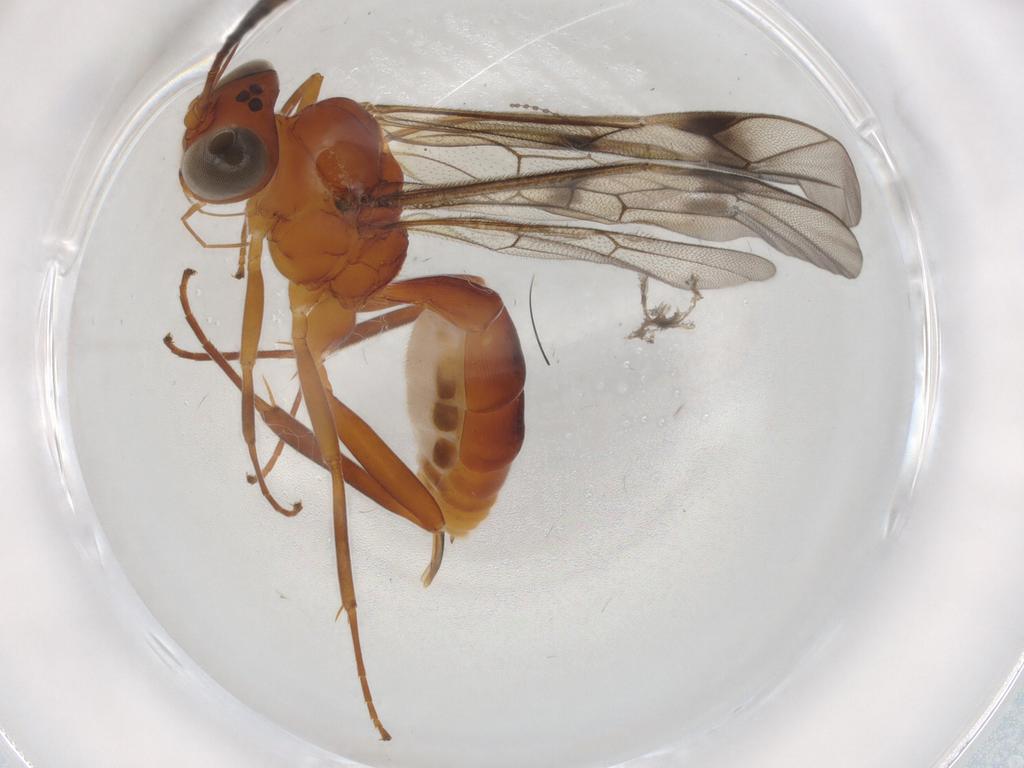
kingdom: Animalia
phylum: Arthropoda
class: Insecta
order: Hymenoptera
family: Ichneumonidae
